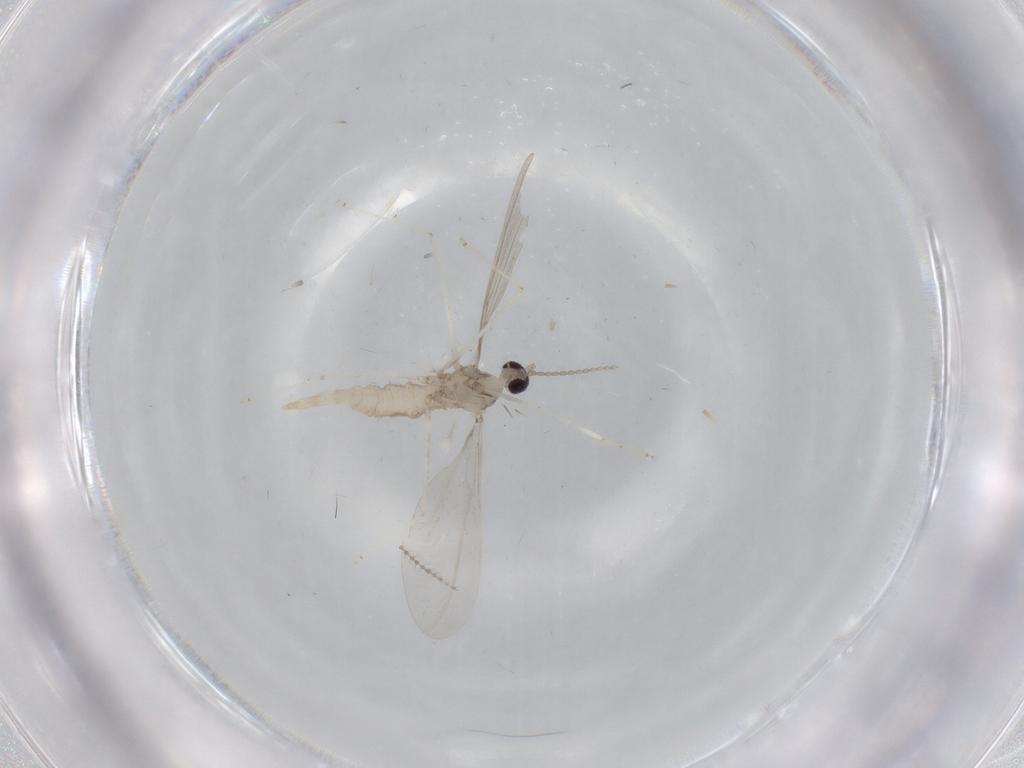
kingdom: Animalia
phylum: Arthropoda
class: Insecta
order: Diptera
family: Cecidomyiidae
